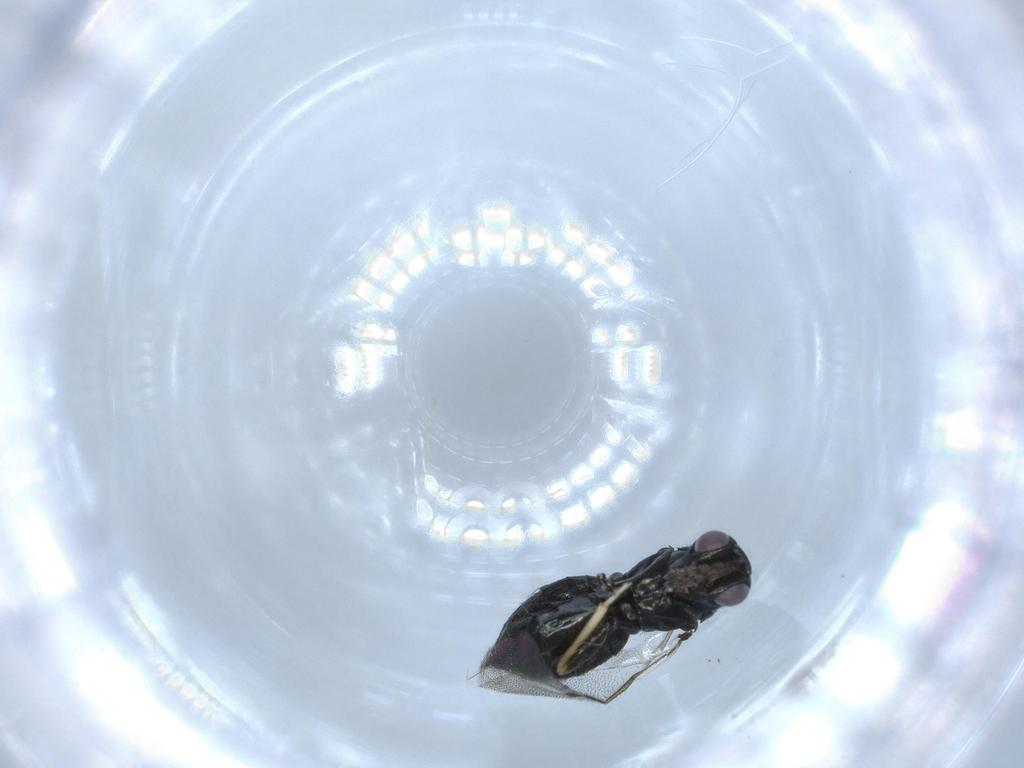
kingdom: Animalia
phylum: Arthropoda
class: Insecta
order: Hymenoptera
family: Eulophidae
